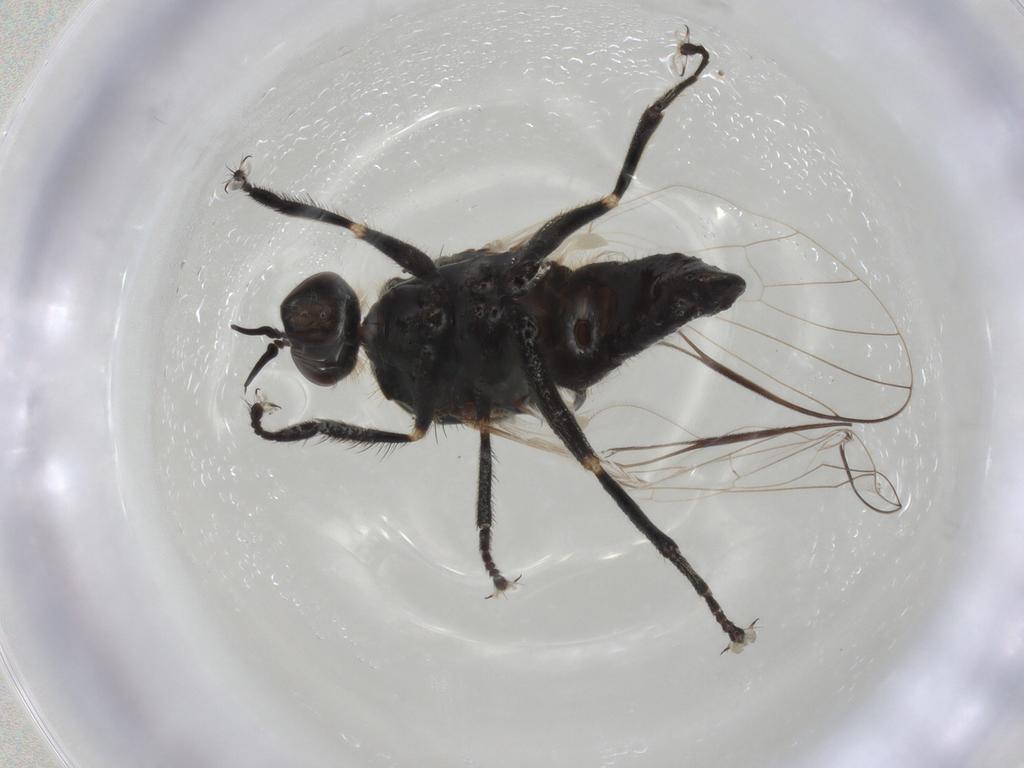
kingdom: Animalia
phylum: Arthropoda
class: Insecta
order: Diptera
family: Empididae
